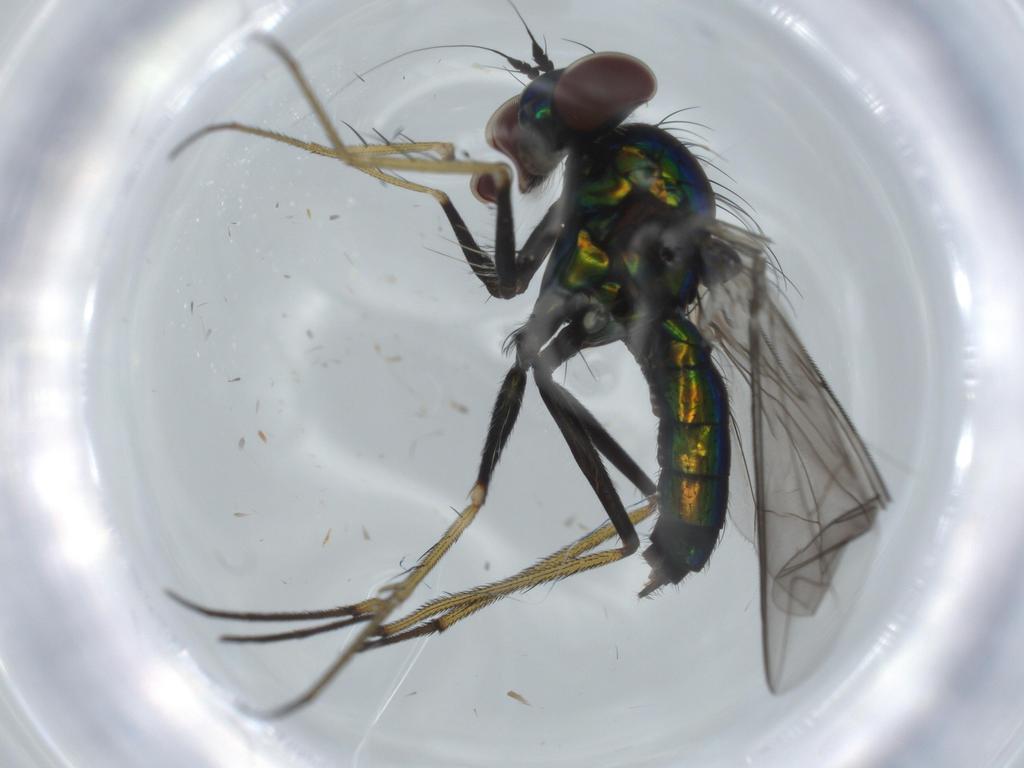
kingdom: Animalia
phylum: Arthropoda
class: Insecta
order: Diptera
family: Dolichopodidae
